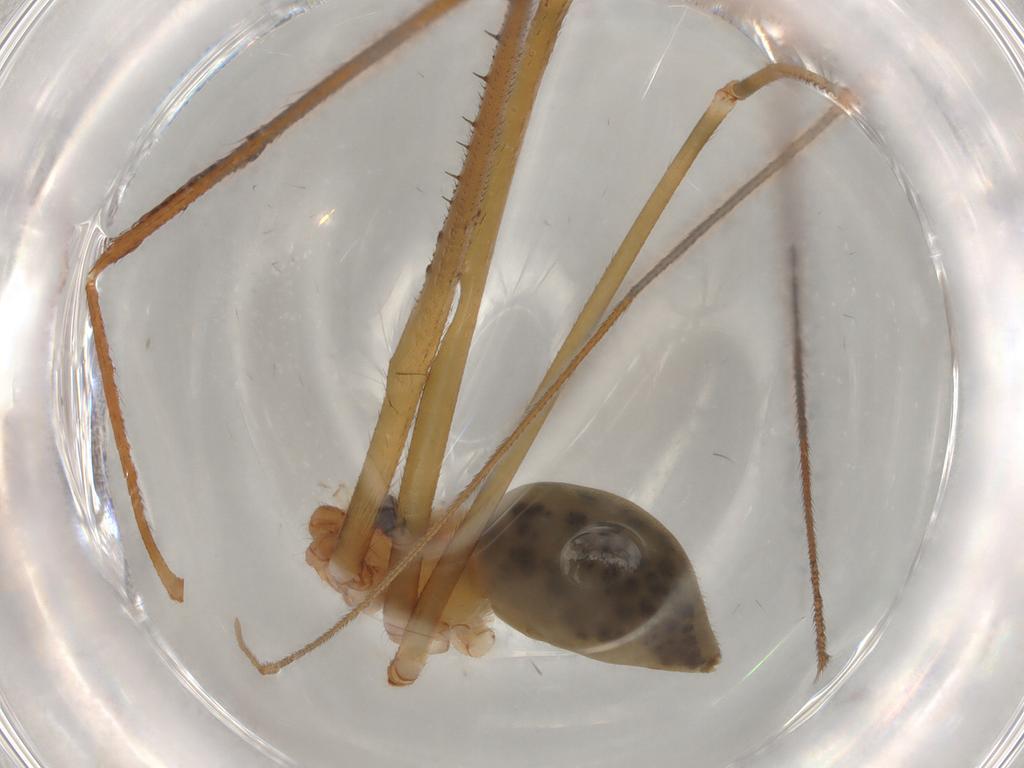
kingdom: Animalia
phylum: Arthropoda
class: Arachnida
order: Araneae
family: Pholcidae
